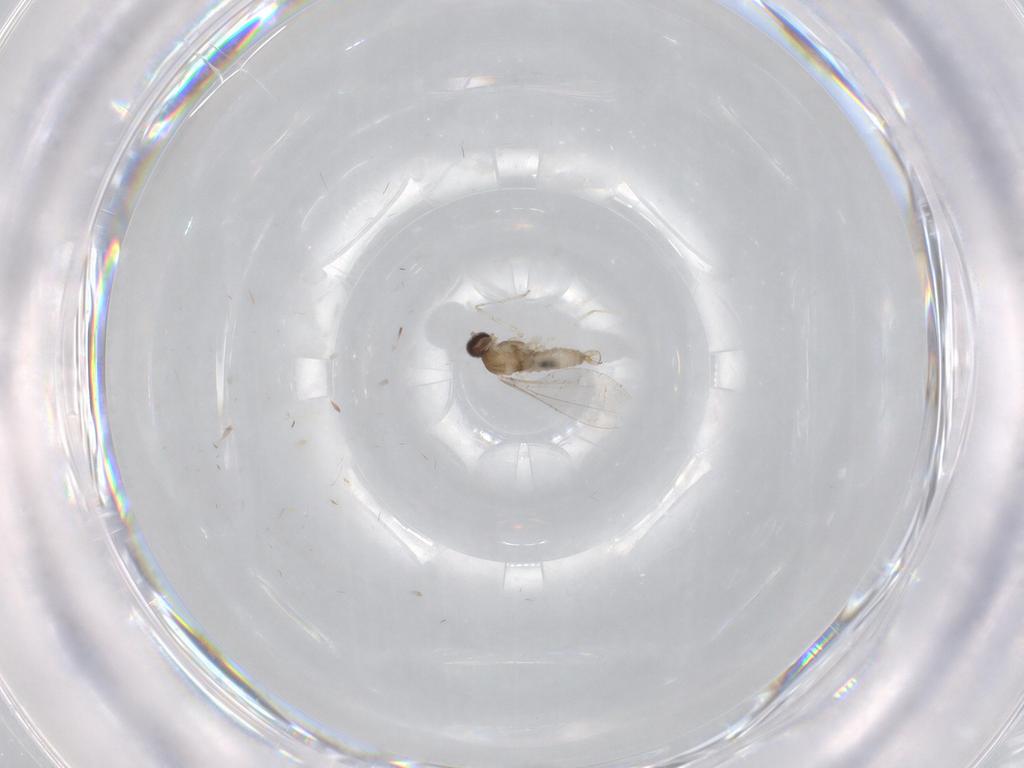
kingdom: Animalia
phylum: Arthropoda
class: Insecta
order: Diptera
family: Cecidomyiidae
